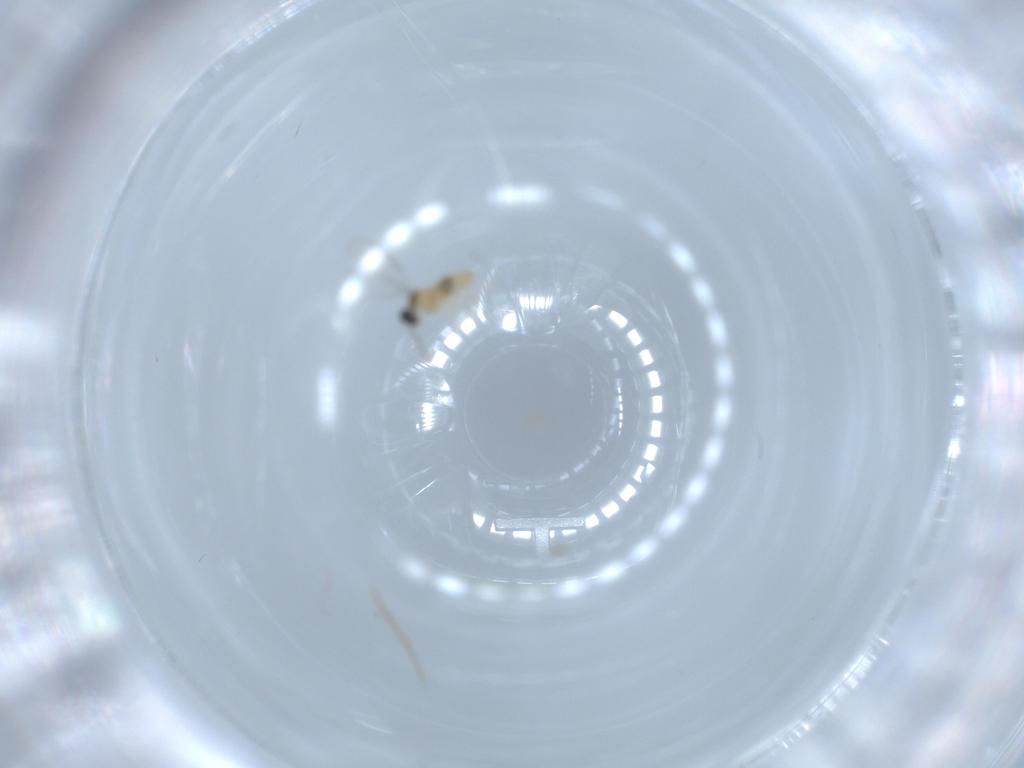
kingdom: Animalia
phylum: Arthropoda
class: Insecta
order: Diptera
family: Cecidomyiidae
